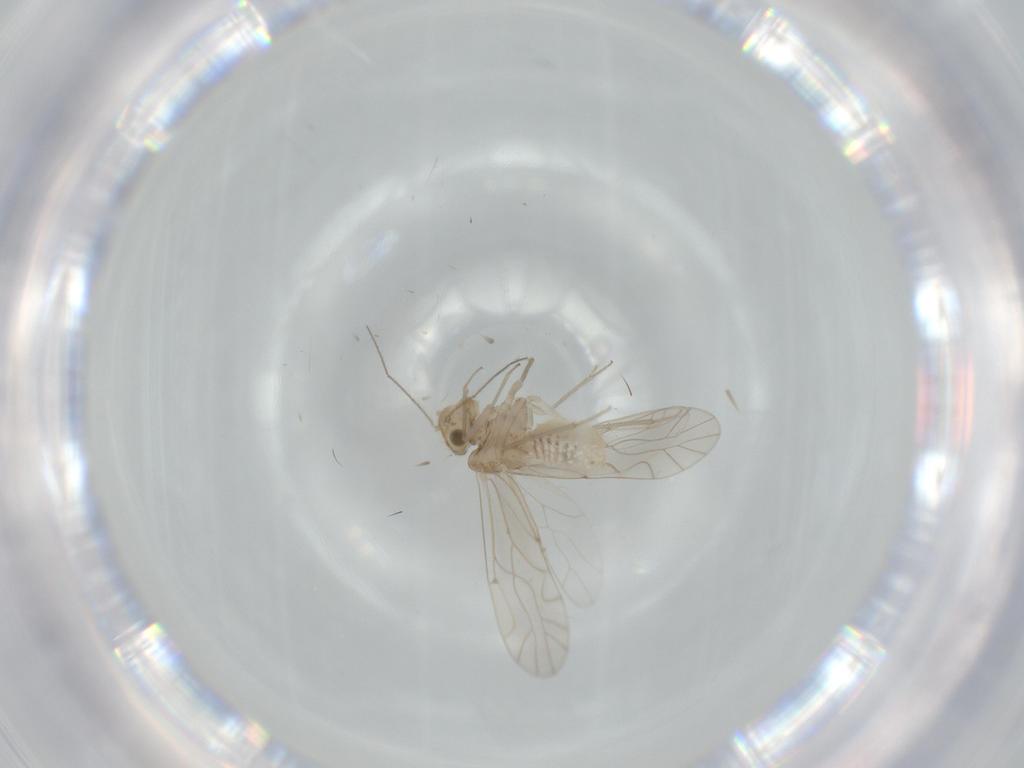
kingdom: Animalia
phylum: Arthropoda
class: Insecta
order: Psocodea
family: Lachesillidae
